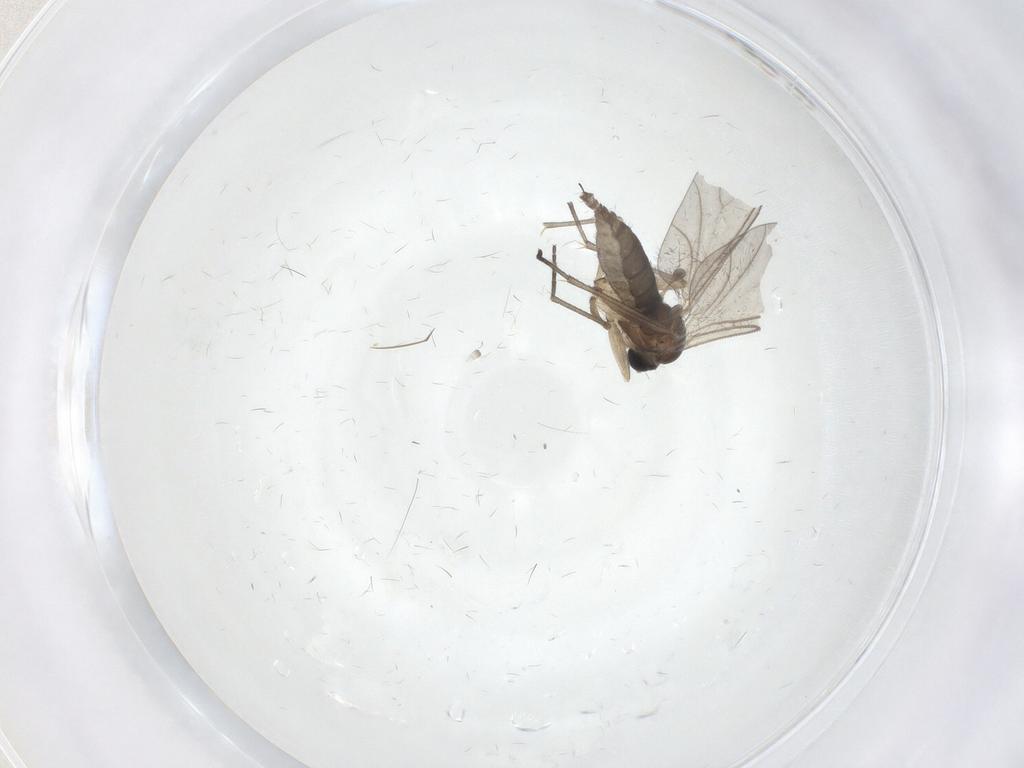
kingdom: Animalia
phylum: Arthropoda
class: Insecta
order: Diptera
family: Sciaridae
